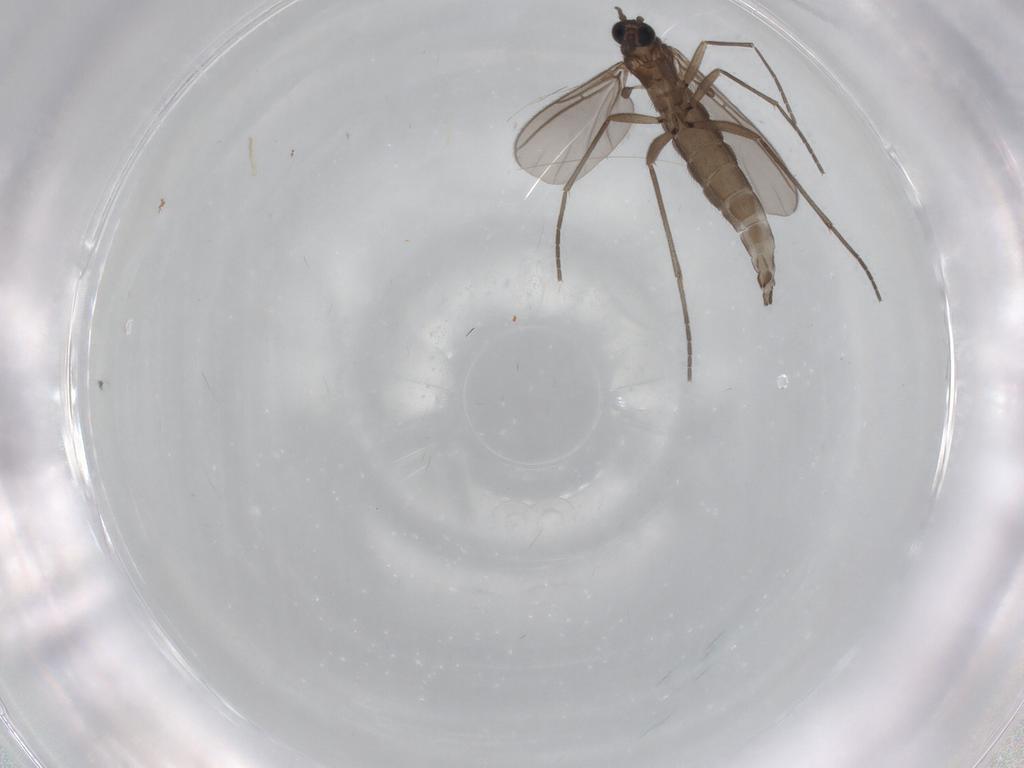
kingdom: Animalia
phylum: Arthropoda
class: Insecta
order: Diptera
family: Sciaridae
